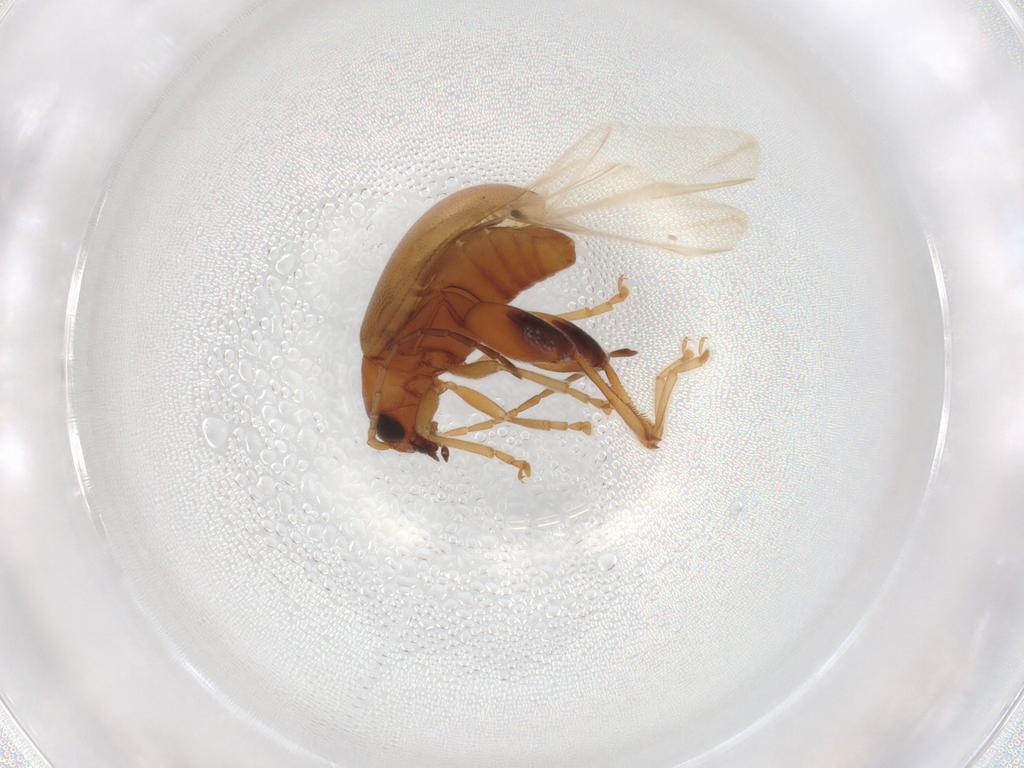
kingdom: Animalia
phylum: Arthropoda
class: Insecta
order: Coleoptera
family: Chrysomelidae
